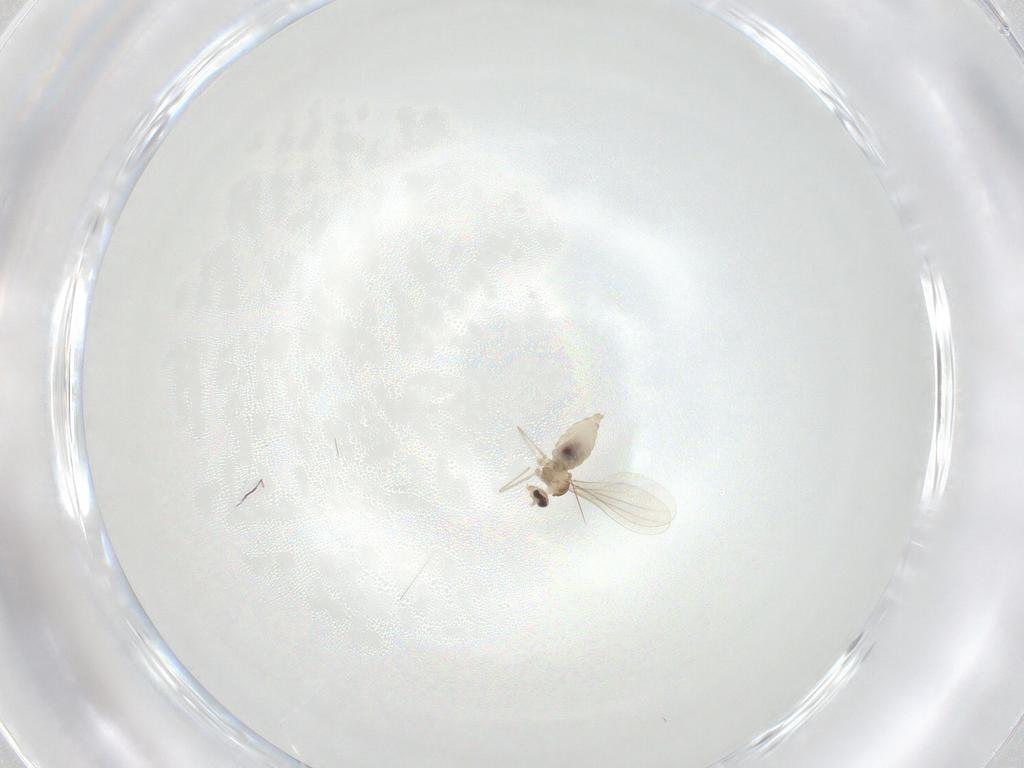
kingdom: Animalia
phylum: Arthropoda
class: Insecta
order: Diptera
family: Cecidomyiidae
